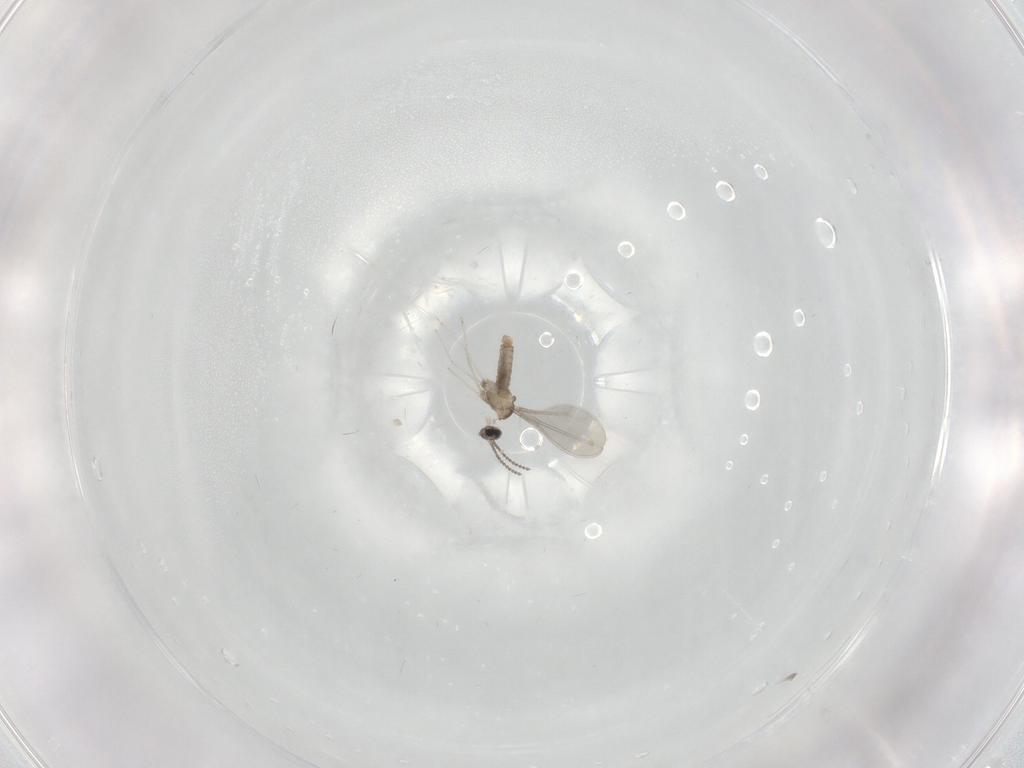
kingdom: Animalia
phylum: Arthropoda
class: Insecta
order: Diptera
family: Cecidomyiidae
